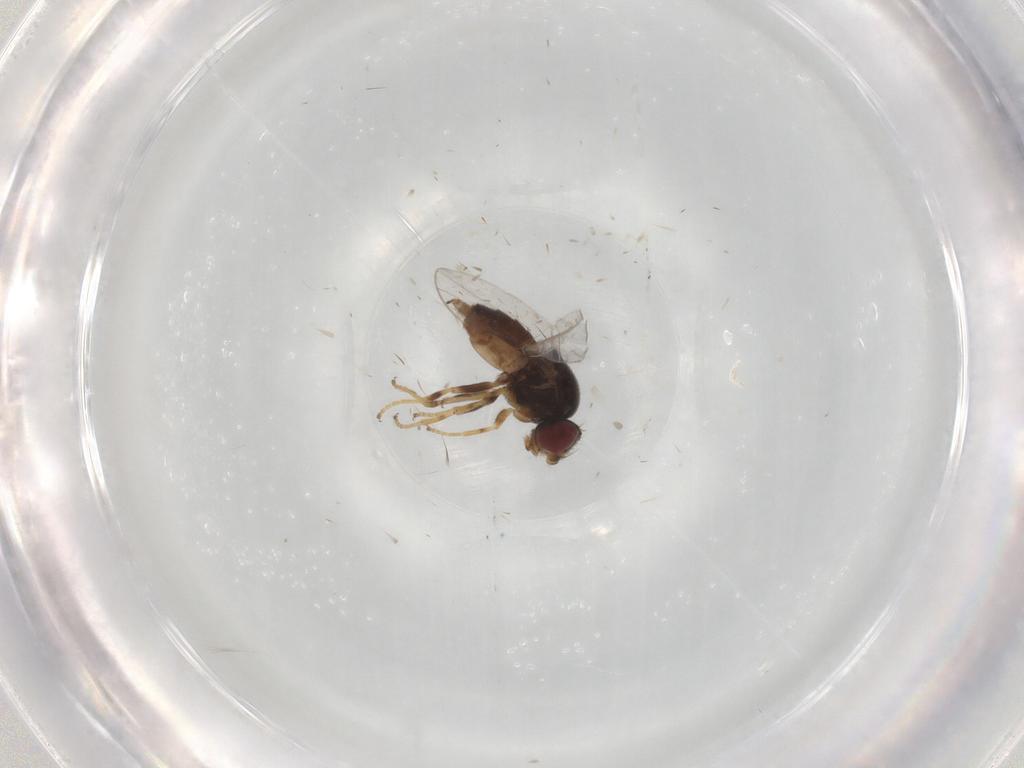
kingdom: Animalia
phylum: Arthropoda
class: Insecta
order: Diptera
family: Chloropidae
